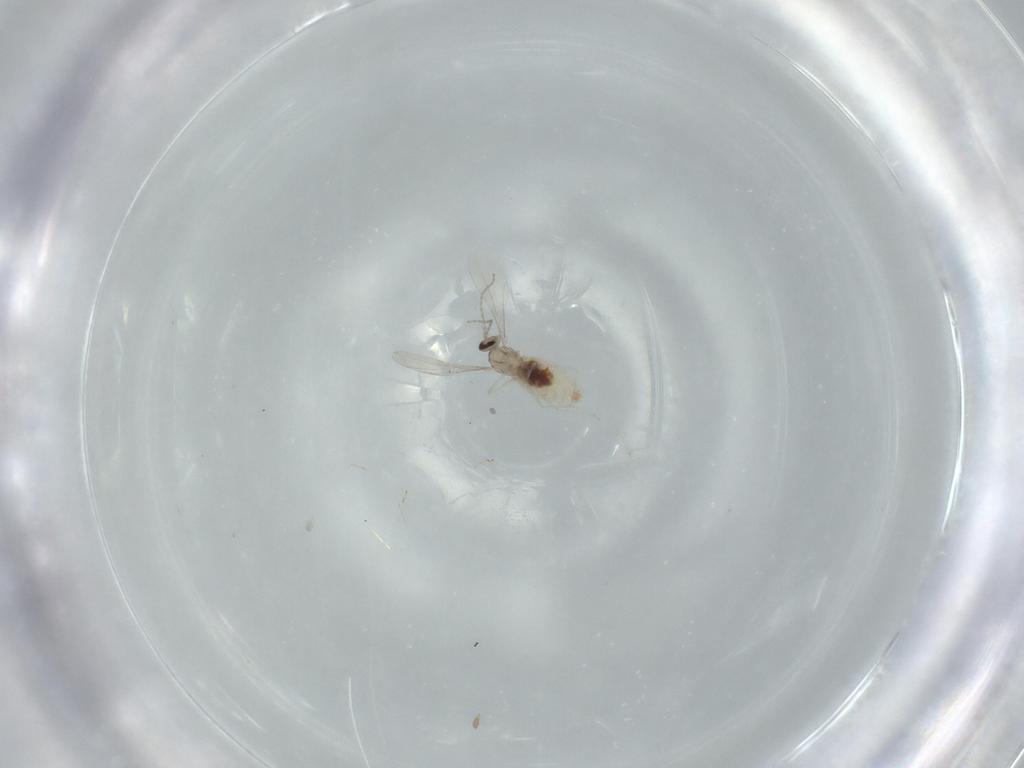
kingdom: Animalia
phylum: Arthropoda
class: Insecta
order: Diptera
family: Cecidomyiidae
